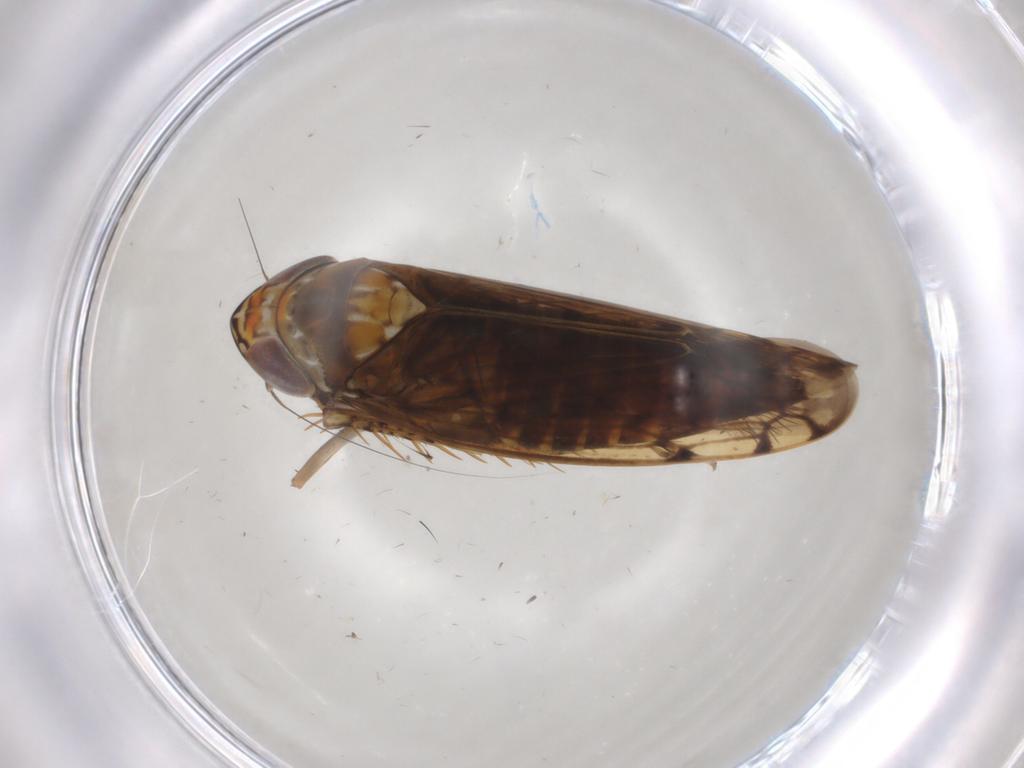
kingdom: Animalia
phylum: Arthropoda
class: Insecta
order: Hemiptera
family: Cicadellidae
